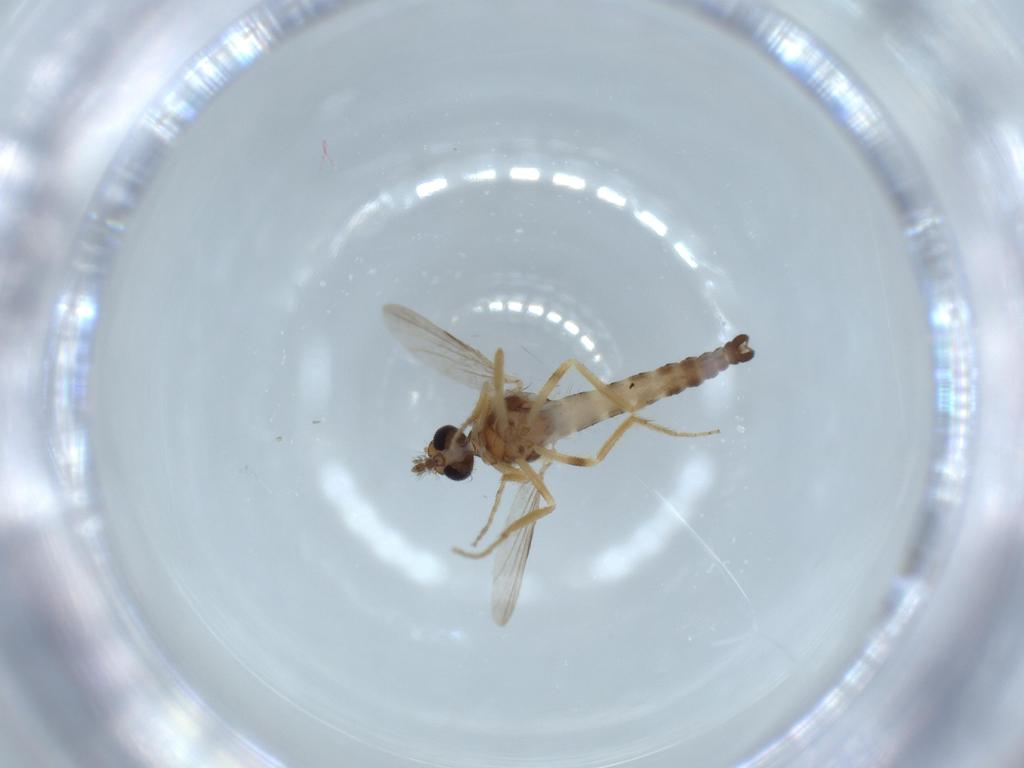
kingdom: Animalia
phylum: Arthropoda
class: Insecta
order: Diptera
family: Ceratopogonidae
